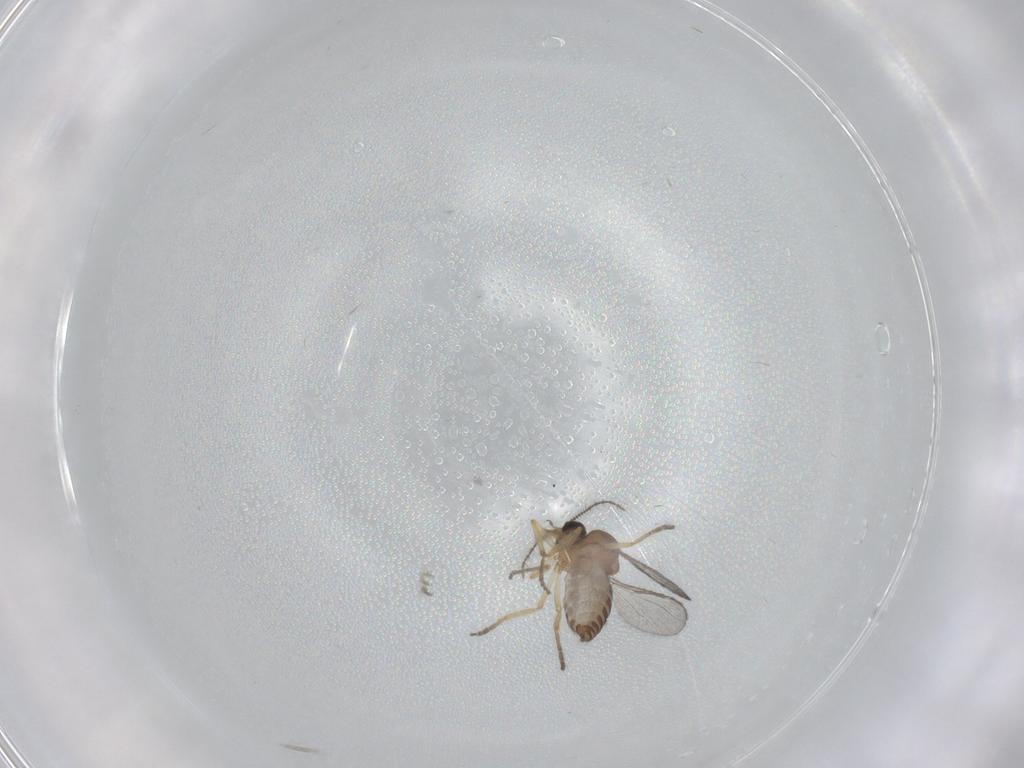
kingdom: Animalia
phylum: Arthropoda
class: Insecta
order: Diptera
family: Ceratopogonidae
